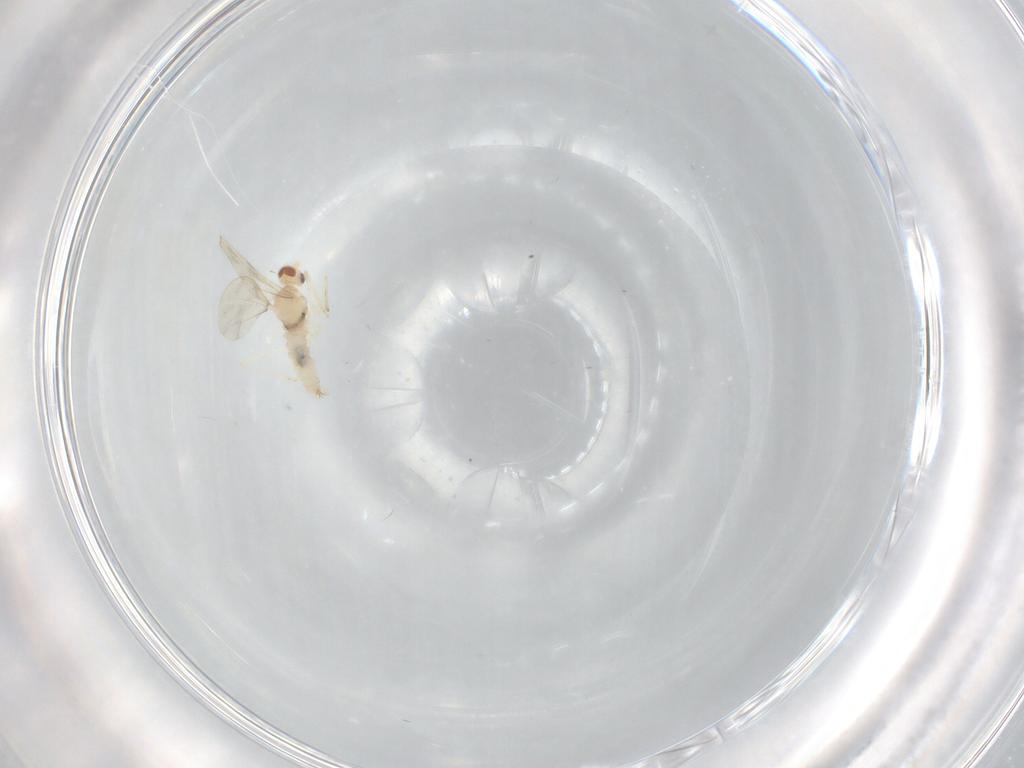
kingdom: Animalia
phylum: Arthropoda
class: Insecta
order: Diptera
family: Cecidomyiidae
